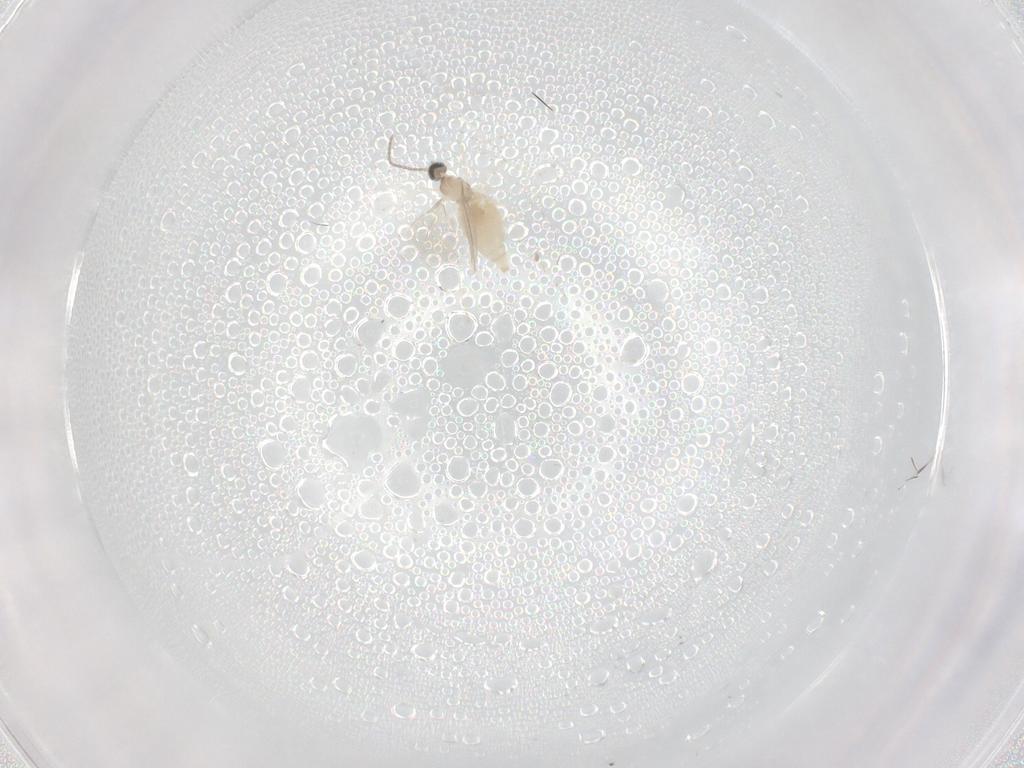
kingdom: Animalia
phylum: Arthropoda
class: Insecta
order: Diptera
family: Cecidomyiidae
